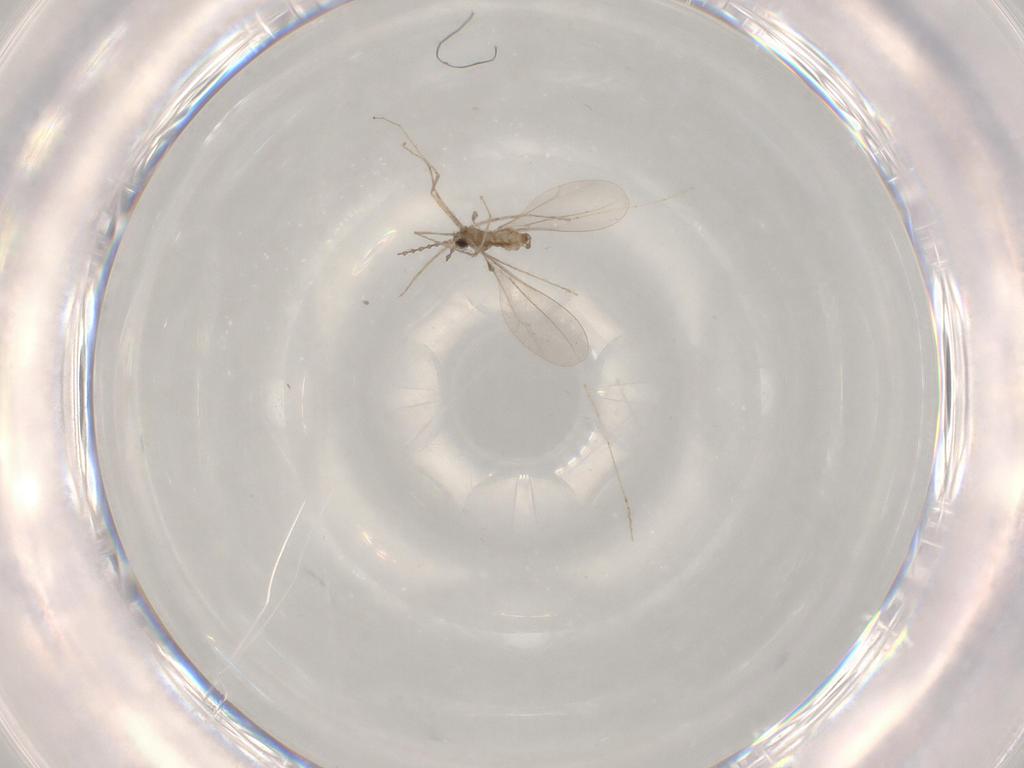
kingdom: Animalia
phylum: Arthropoda
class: Insecta
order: Diptera
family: Cecidomyiidae
